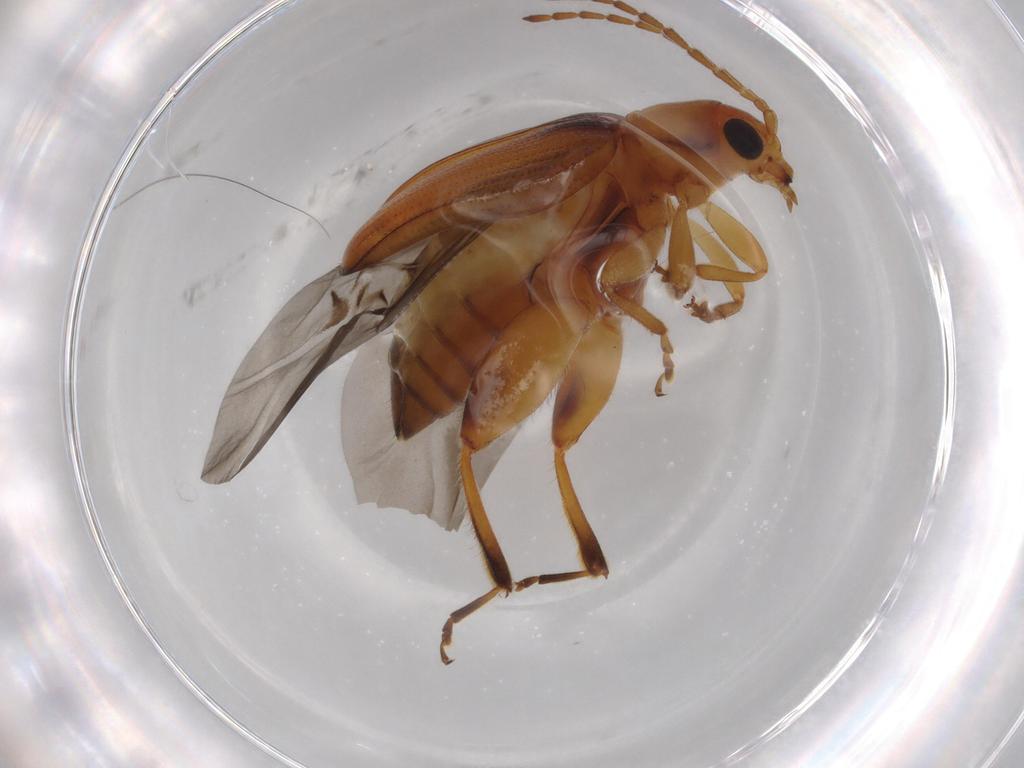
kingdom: Animalia
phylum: Arthropoda
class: Insecta
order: Coleoptera
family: Chrysomelidae
